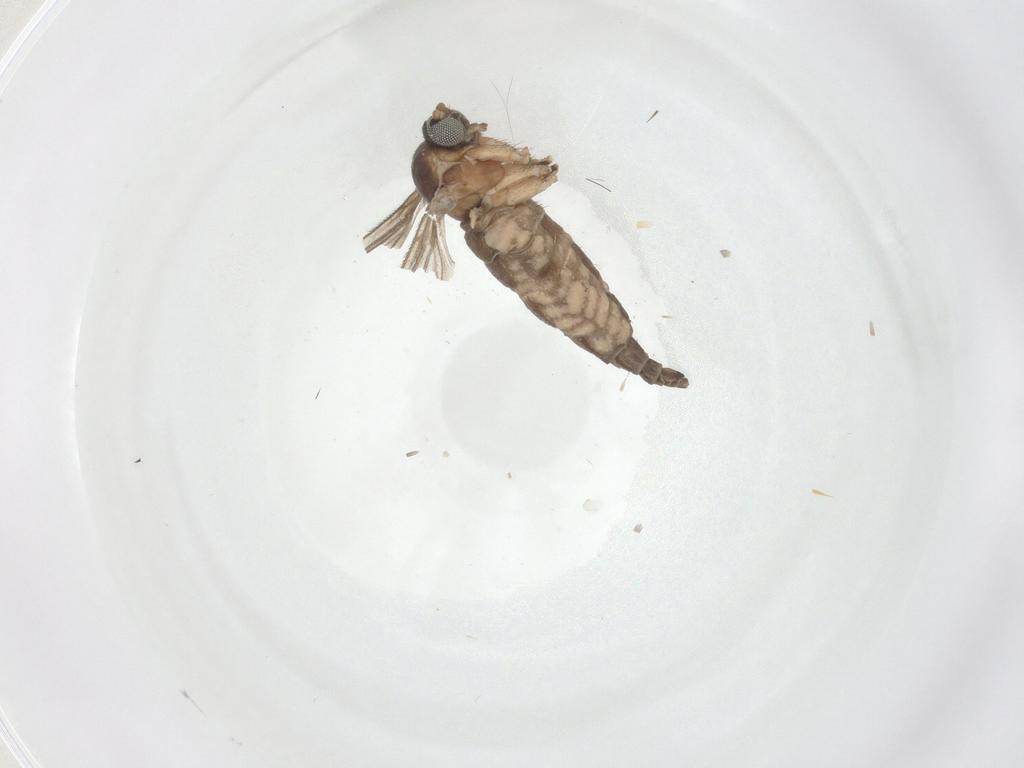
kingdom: Animalia
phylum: Arthropoda
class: Insecta
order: Diptera
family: Sciaridae
